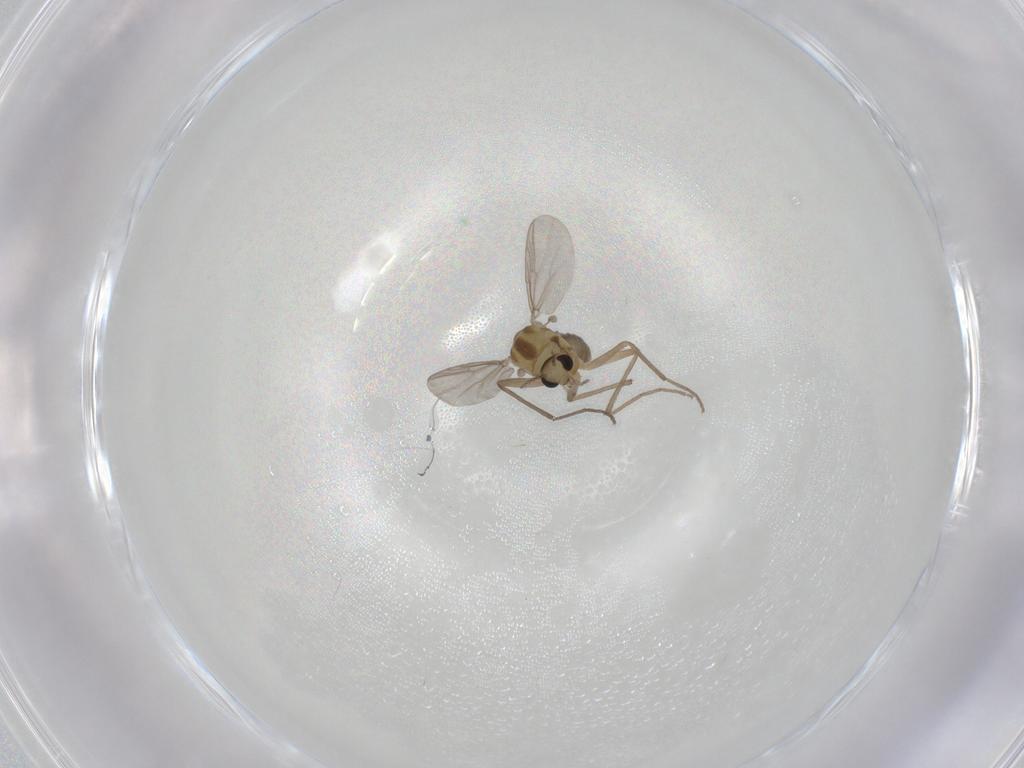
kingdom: Animalia
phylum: Arthropoda
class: Insecta
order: Diptera
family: Chironomidae
